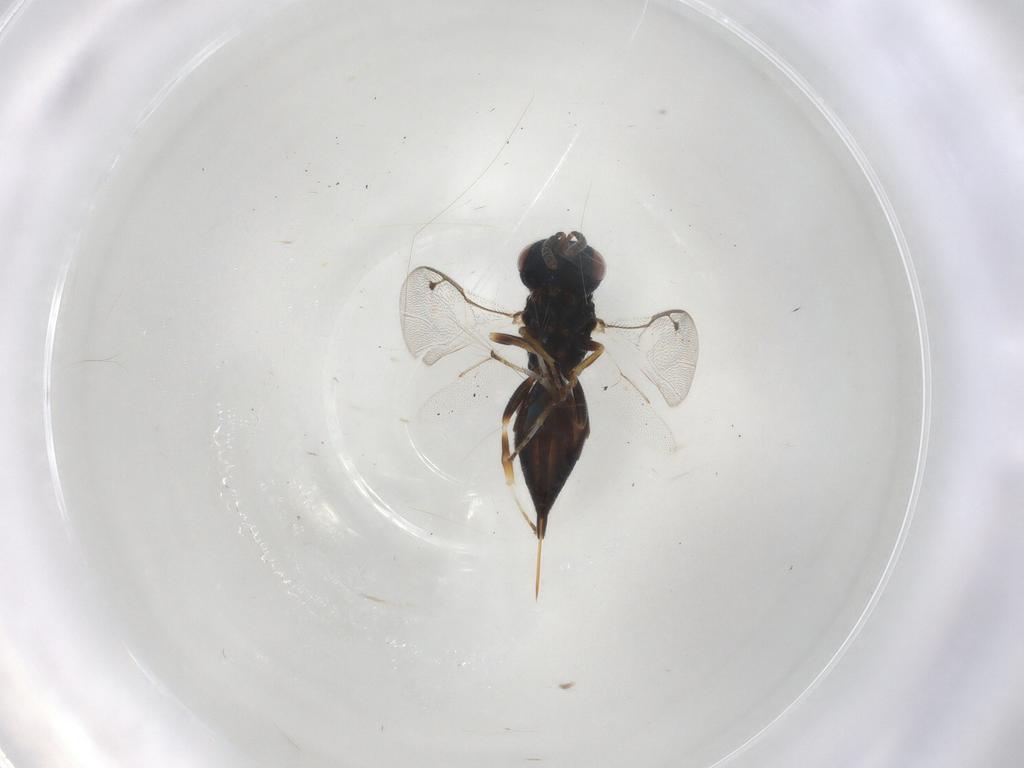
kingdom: Animalia
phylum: Arthropoda
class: Insecta
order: Hymenoptera
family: Pteromalidae
